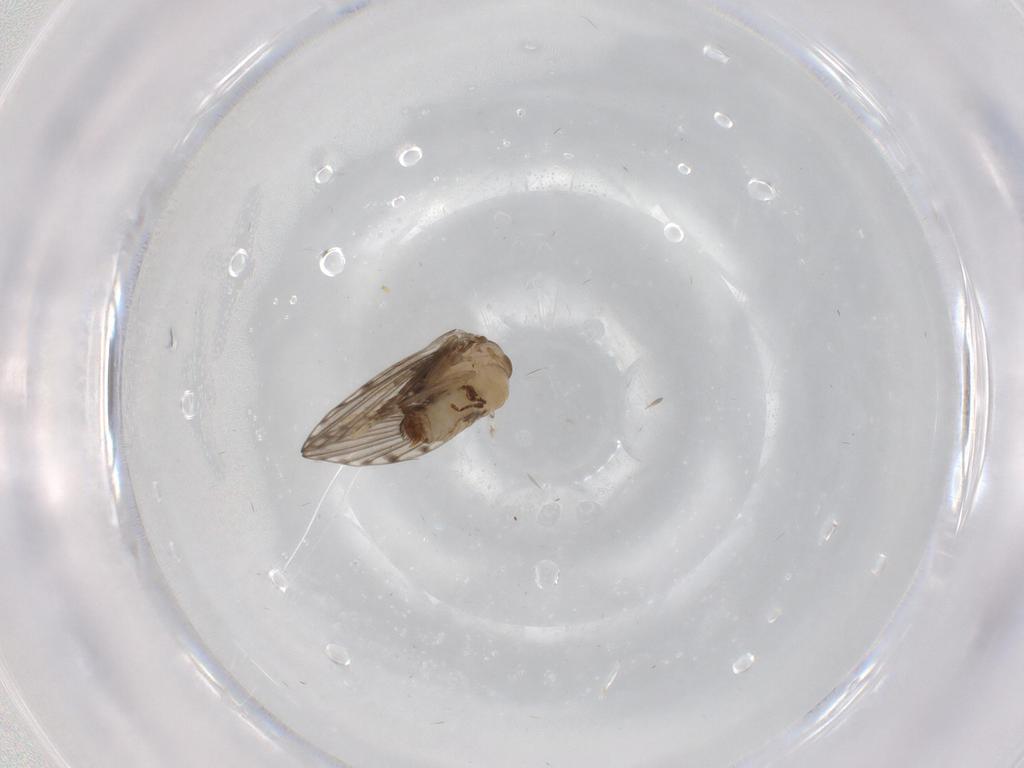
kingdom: Animalia
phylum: Arthropoda
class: Insecta
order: Diptera
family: Psychodidae
